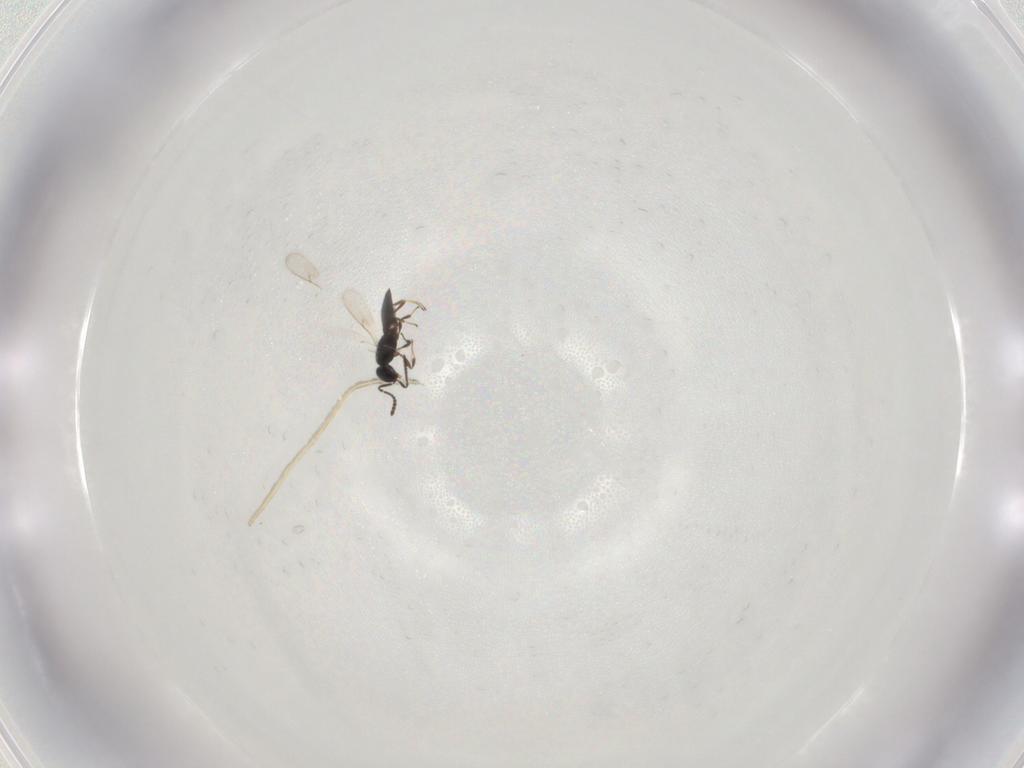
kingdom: Animalia
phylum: Arthropoda
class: Insecta
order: Hymenoptera
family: Scelionidae
